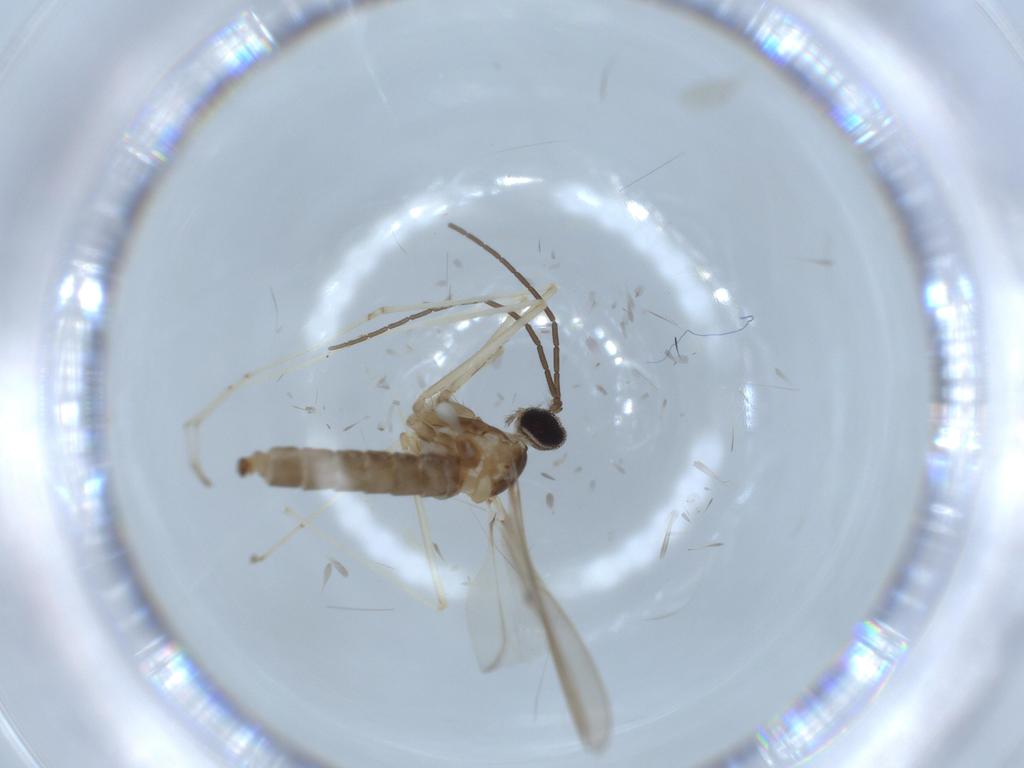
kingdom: Animalia
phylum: Arthropoda
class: Insecta
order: Diptera
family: Cecidomyiidae
